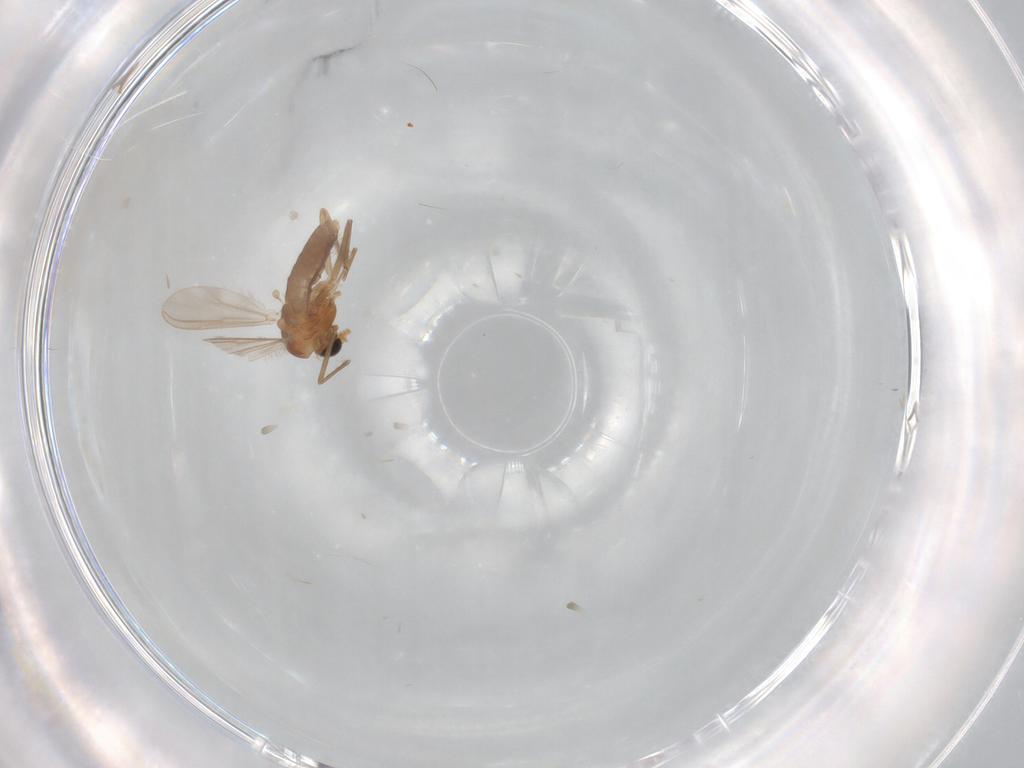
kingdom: Animalia
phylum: Arthropoda
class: Insecta
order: Diptera
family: Chironomidae
